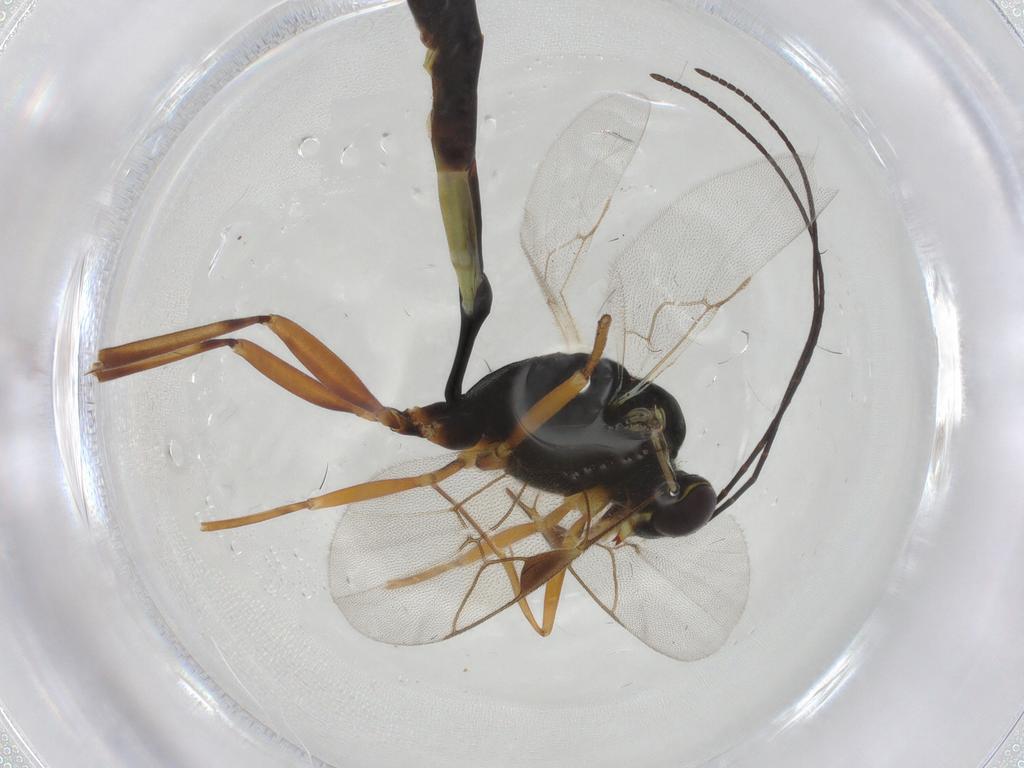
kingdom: Animalia
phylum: Arthropoda
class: Insecta
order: Hymenoptera
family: Ichneumonidae
